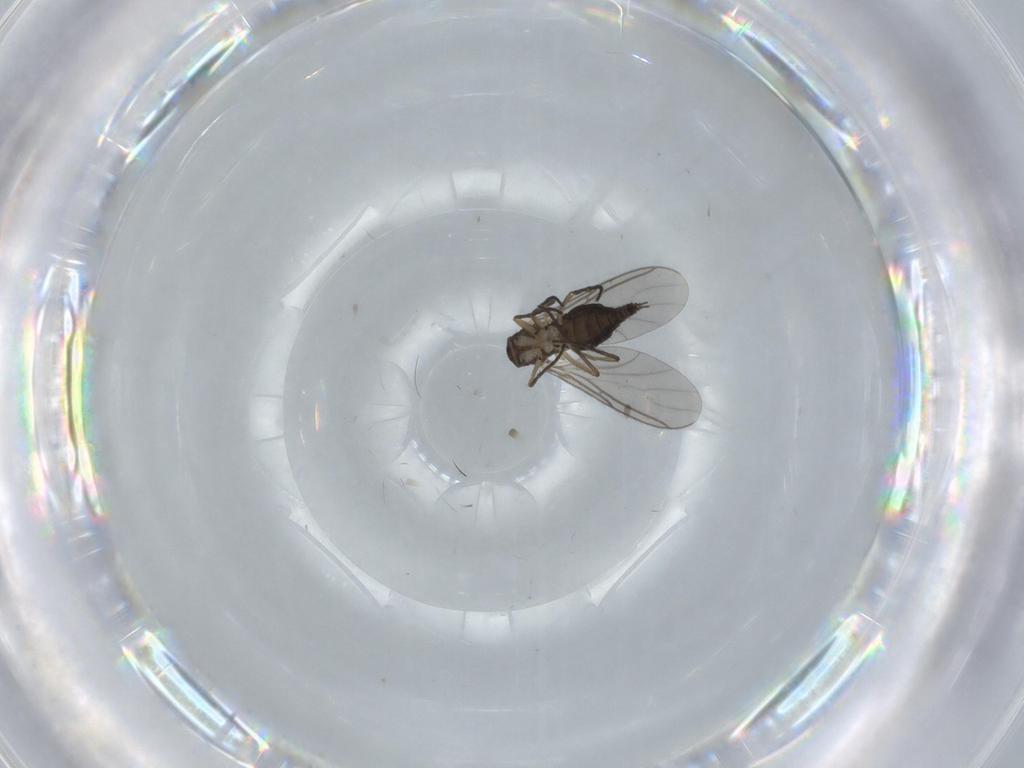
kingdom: Animalia
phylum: Arthropoda
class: Insecta
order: Diptera
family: Sciaridae
